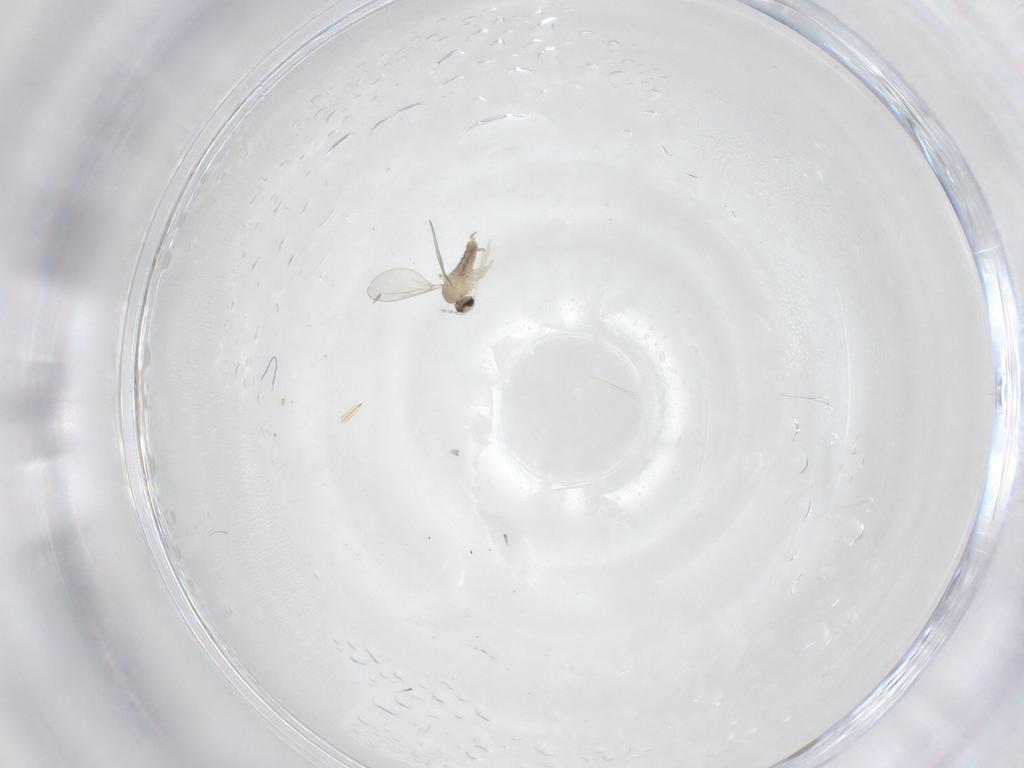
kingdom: Animalia
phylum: Arthropoda
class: Insecta
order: Diptera
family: Cecidomyiidae
